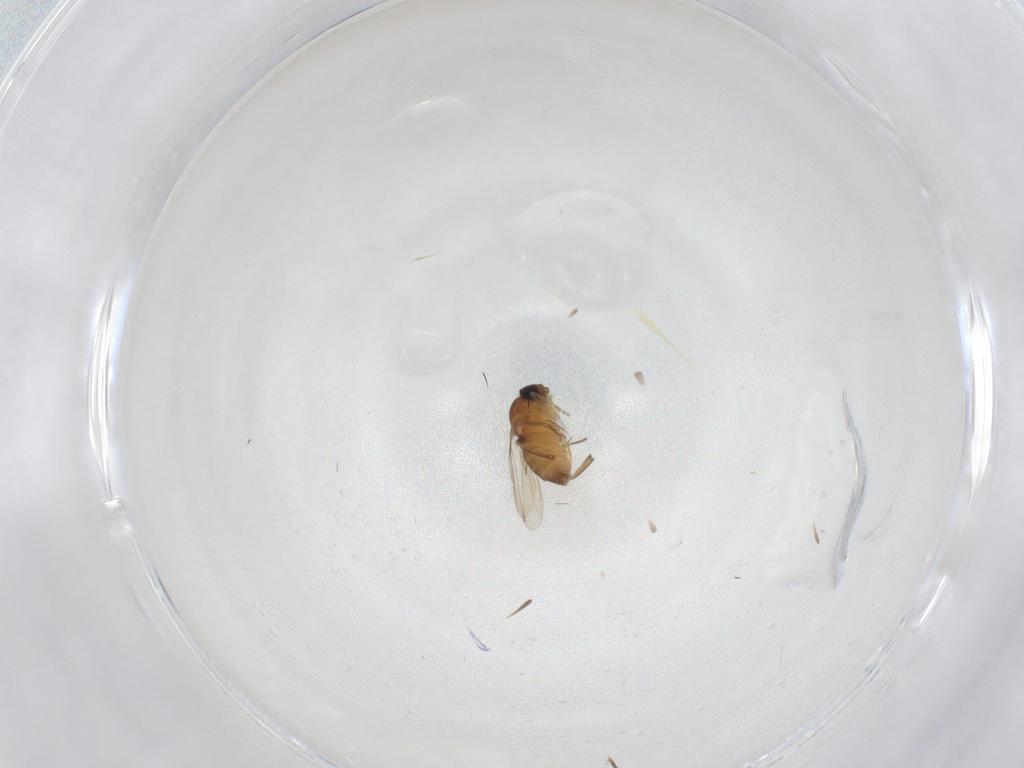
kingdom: Animalia
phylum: Arthropoda
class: Insecta
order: Diptera
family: Phoridae
